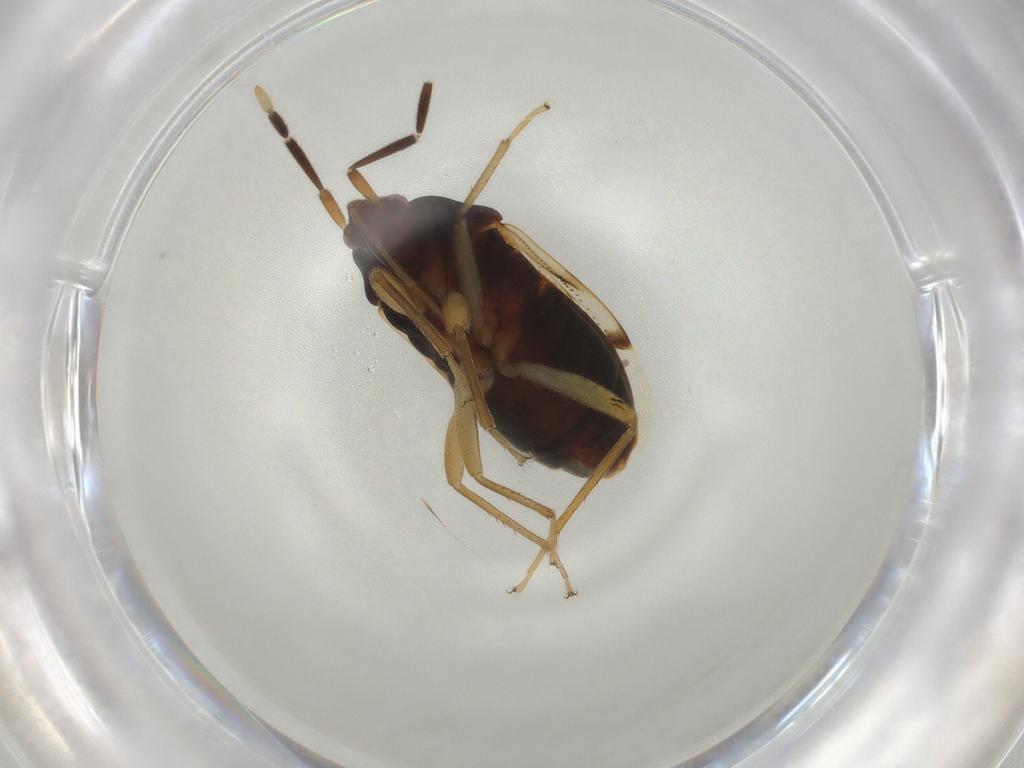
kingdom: Animalia
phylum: Arthropoda
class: Insecta
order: Hemiptera
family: Rhyparochromidae
